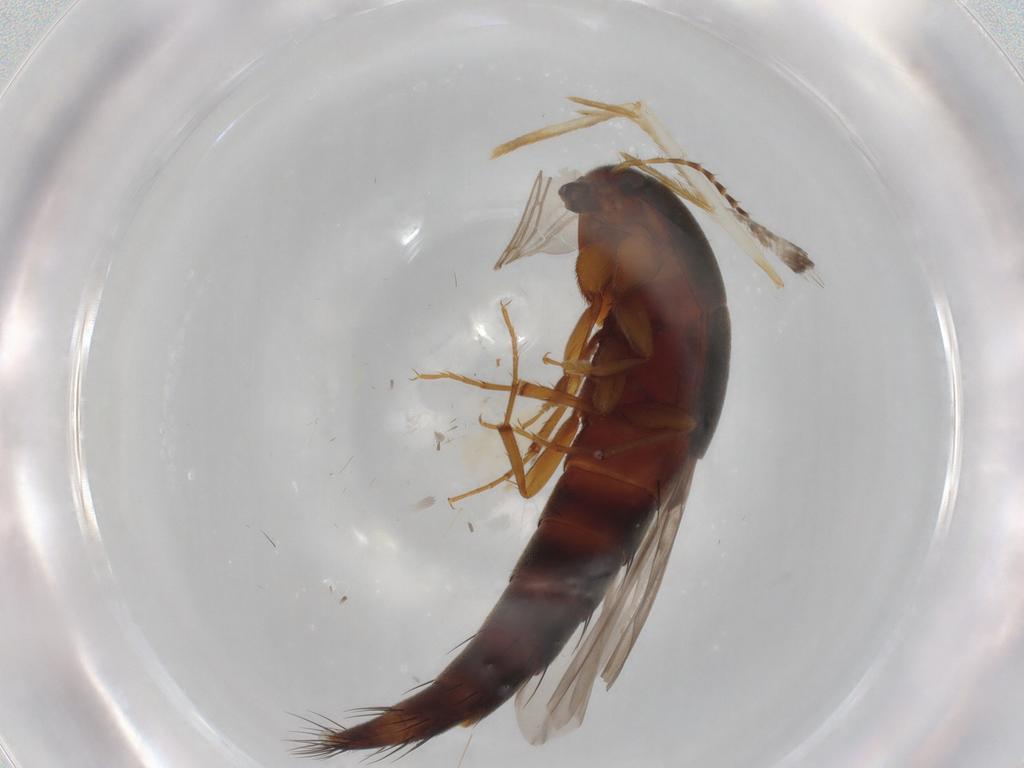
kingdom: Animalia
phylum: Arthropoda
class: Insecta
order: Coleoptera
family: Staphylinidae
